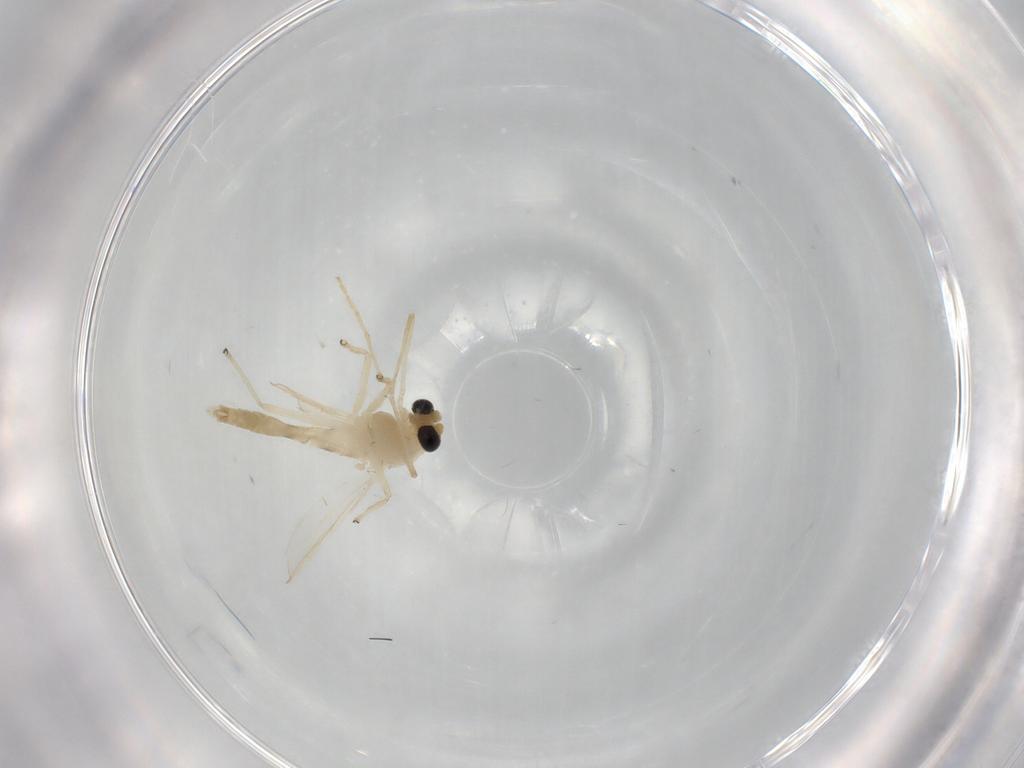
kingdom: Animalia
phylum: Arthropoda
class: Insecta
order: Diptera
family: Chironomidae
